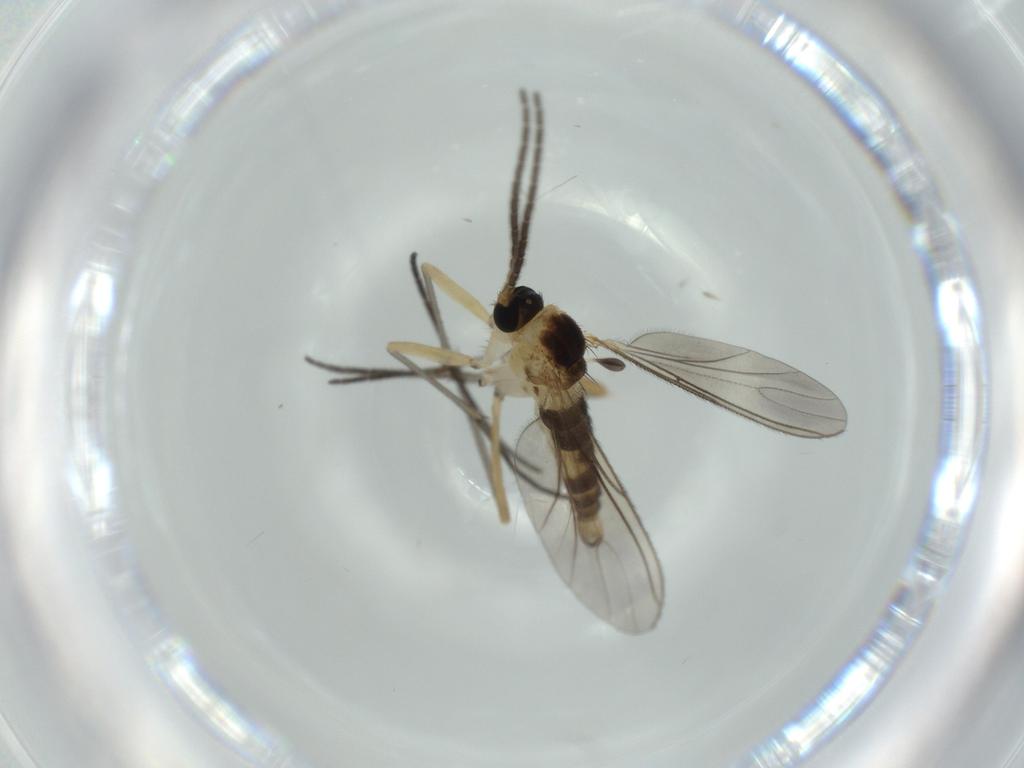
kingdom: Animalia
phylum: Arthropoda
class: Insecta
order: Diptera
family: Sciaridae
